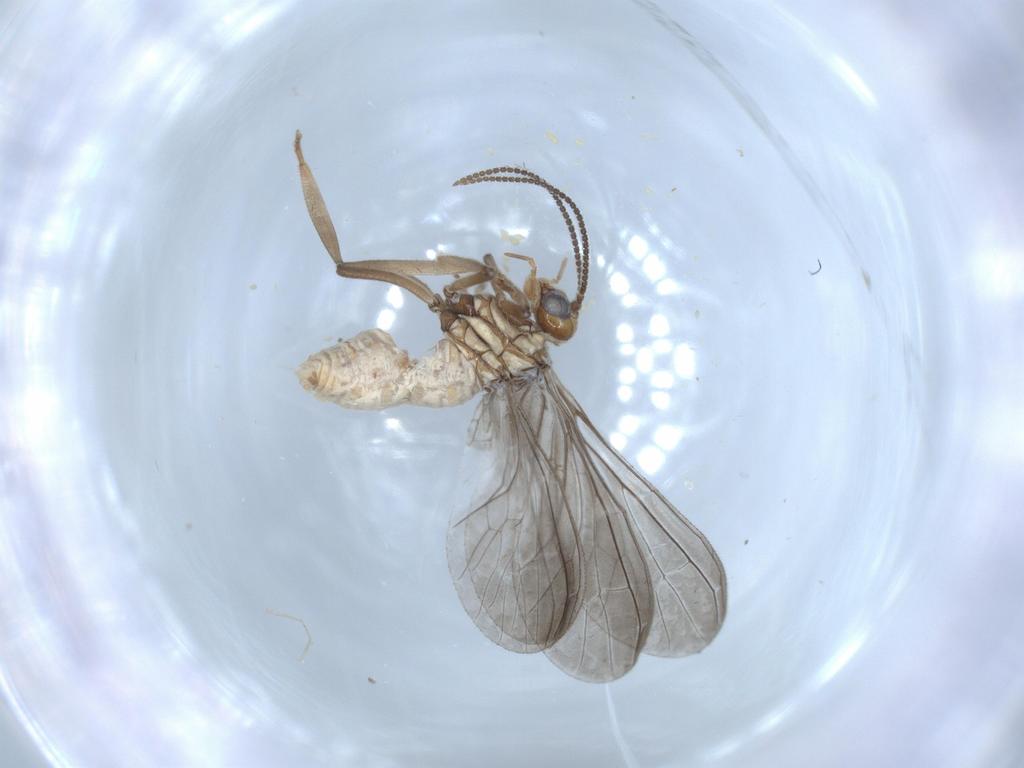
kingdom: Animalia
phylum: Arthropoda
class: Insecta
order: Neuroptera
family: Coniopterygidae
